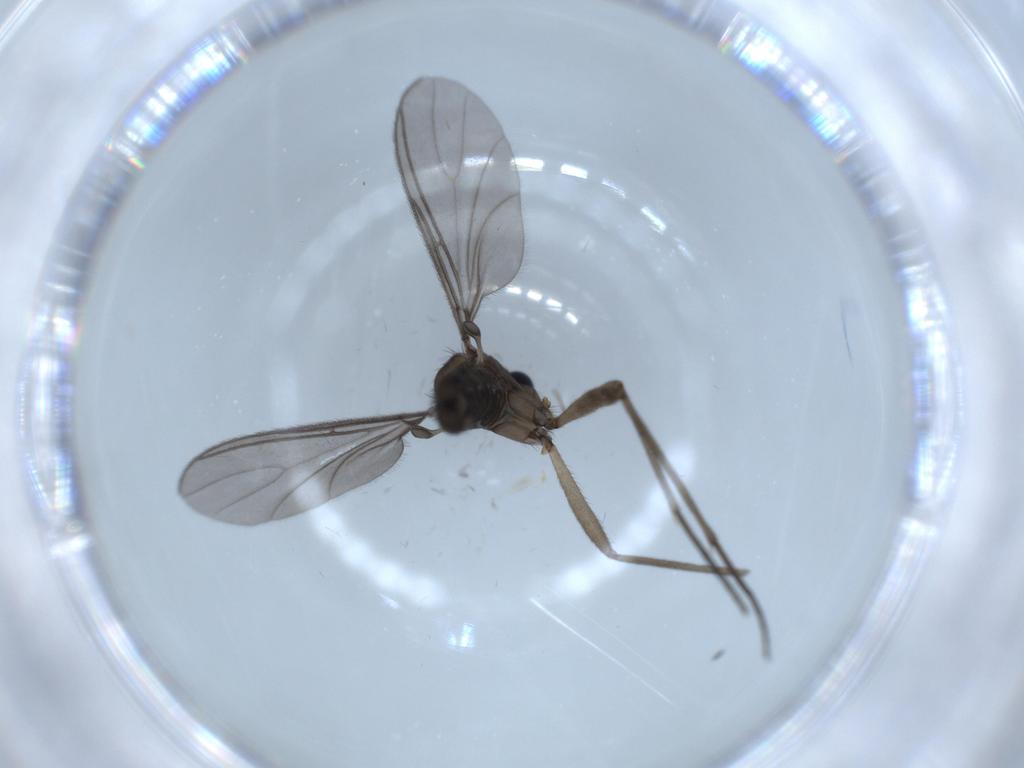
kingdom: Animalia
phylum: Arthropoda
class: Insecta
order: Diptera
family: Sciaridae
